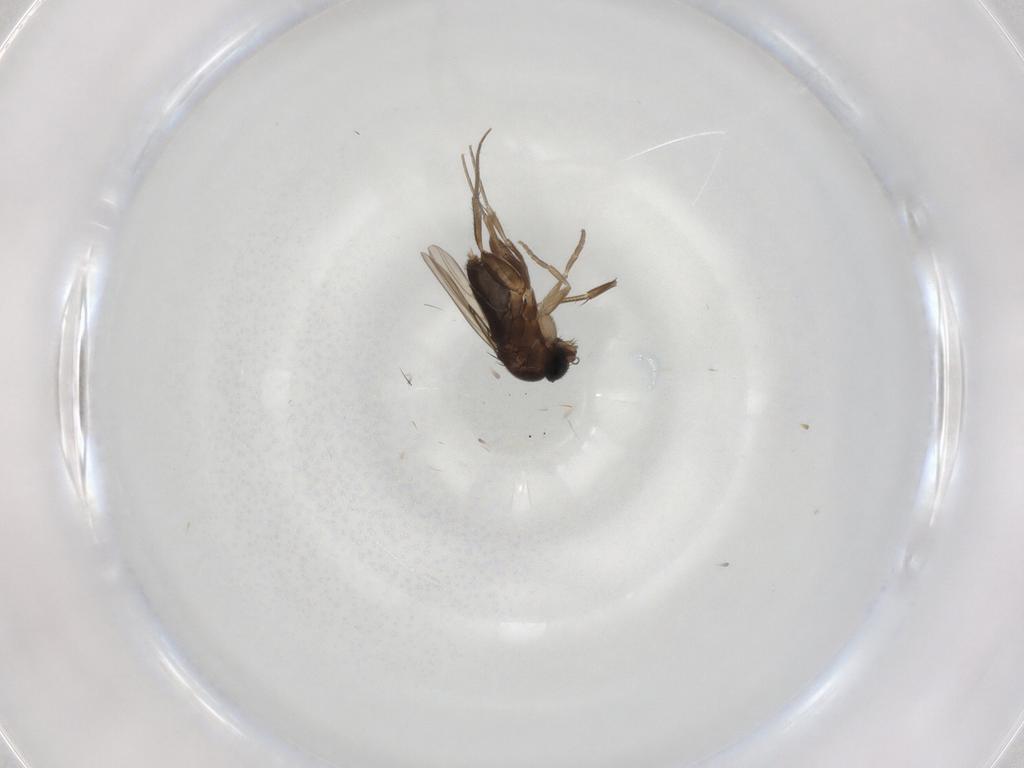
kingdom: Animalia
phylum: Arthropoda
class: Insecta
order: Diptera
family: Phoridae
